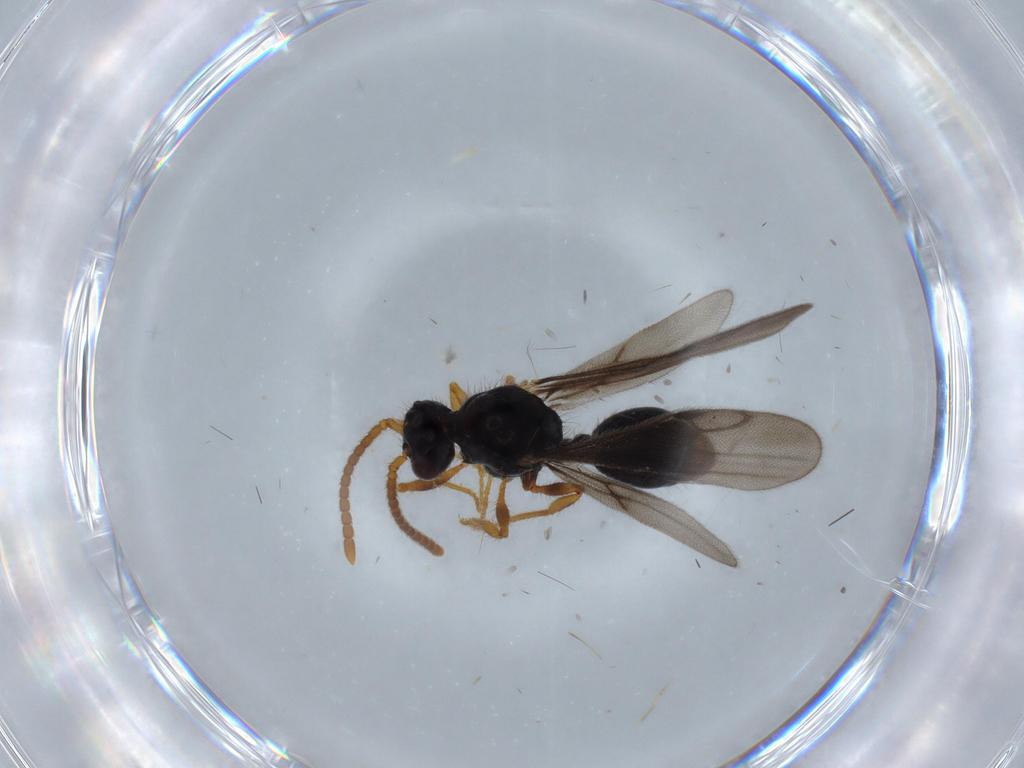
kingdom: Animalia
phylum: Arthropoda
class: Insecta
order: Hymenoptera
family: Formicidae
